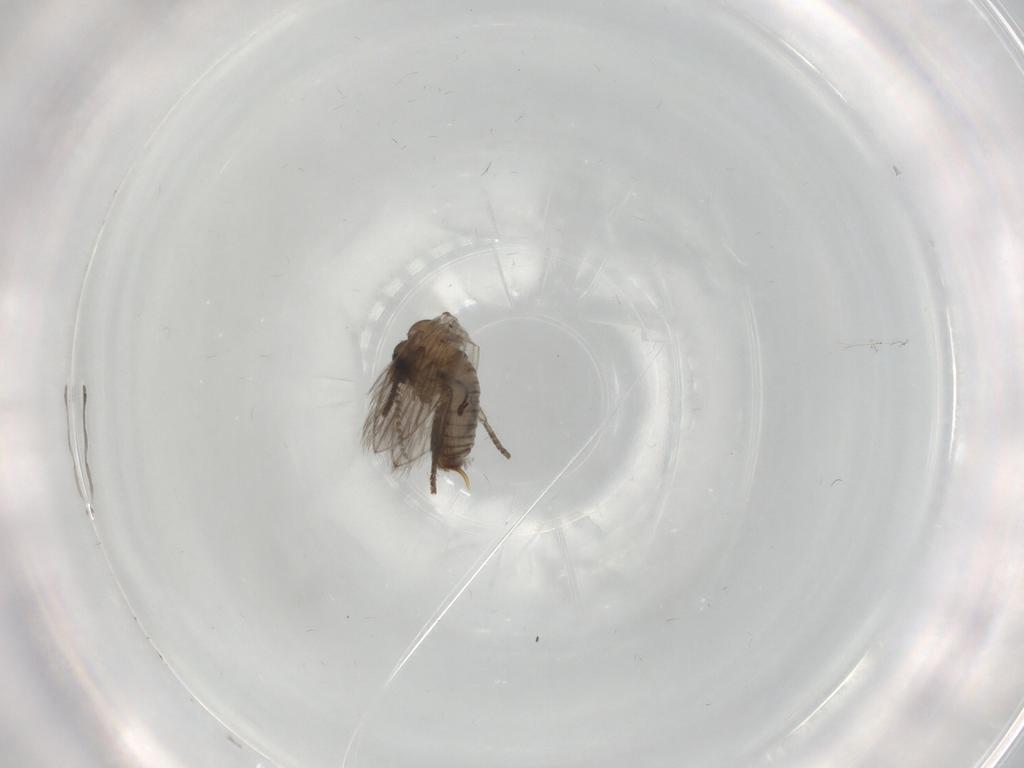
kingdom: Animalia
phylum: Arthropoda
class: Insecta
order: Diptera
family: Psychodidae
